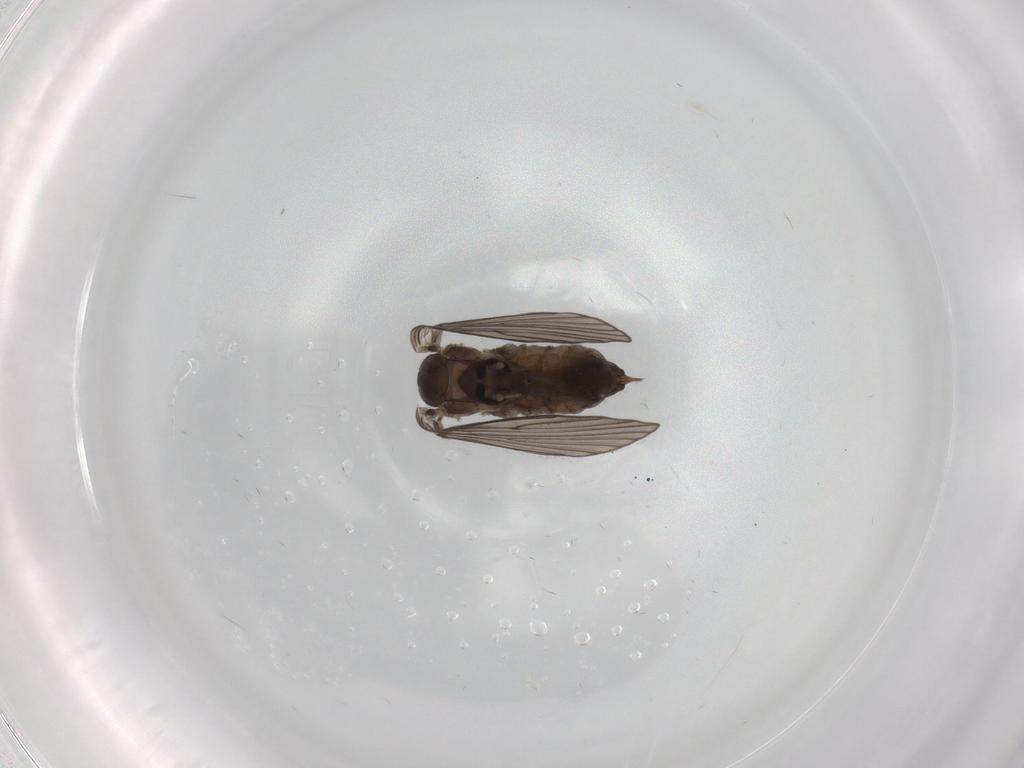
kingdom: Animalia
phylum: Arthropoda
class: Insecta
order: Diptera
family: Psychodidae
